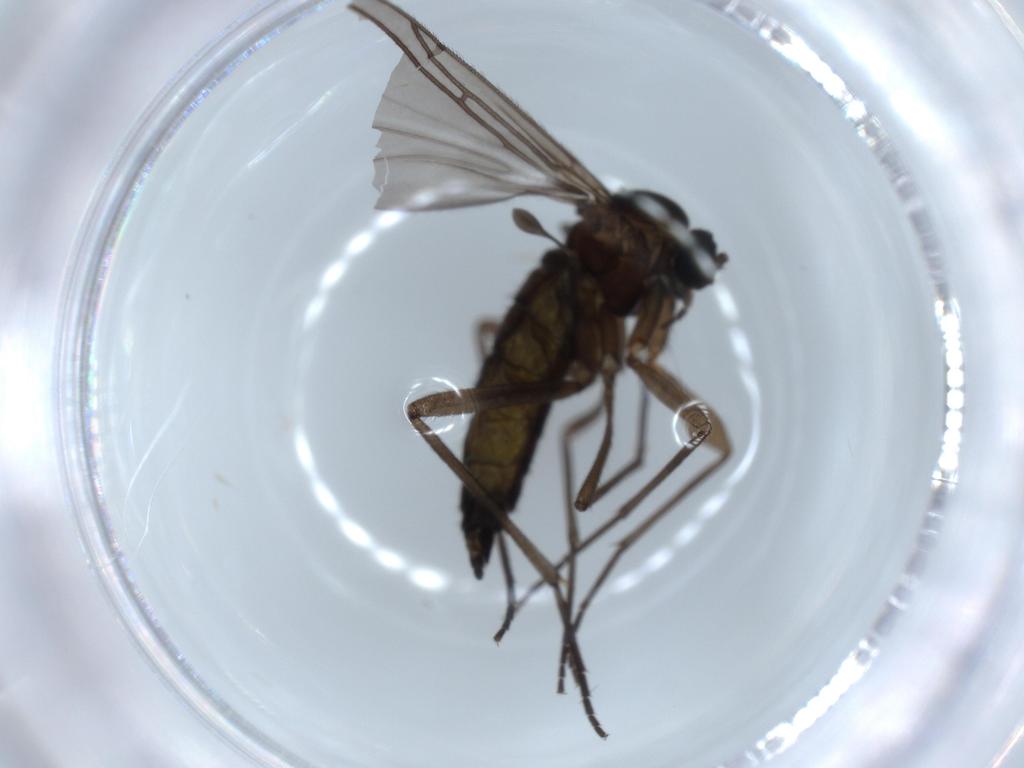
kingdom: Animalia
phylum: Arthropoda
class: Insecta
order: Diptera
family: Sciaridae
